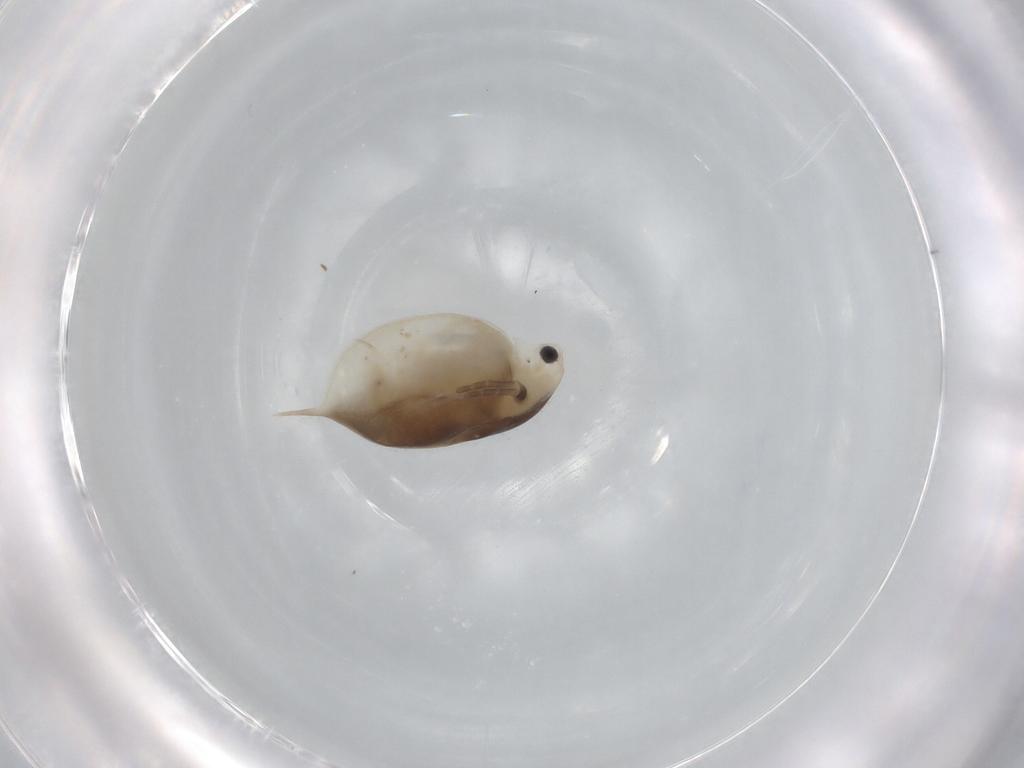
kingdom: Animalia
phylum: Arthropoda
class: Branchiopoda
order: Diplostraca
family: Daphniidae
